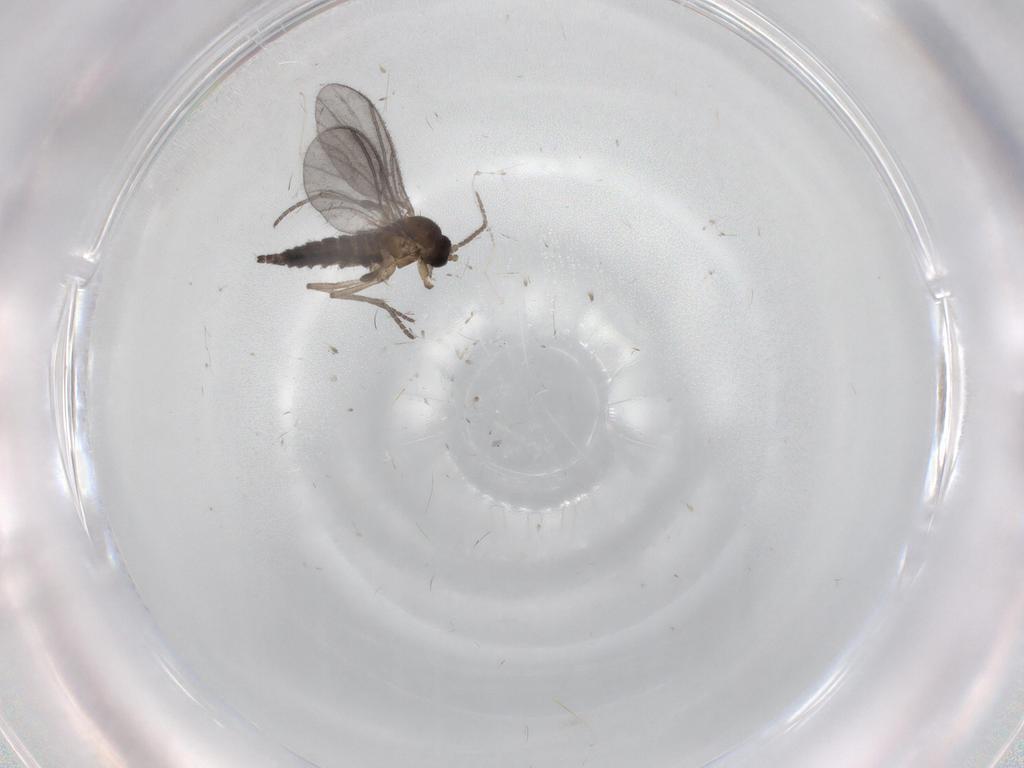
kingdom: Animalia
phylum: Arthropoda
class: Insecta
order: Diptera
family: Sciaridae
